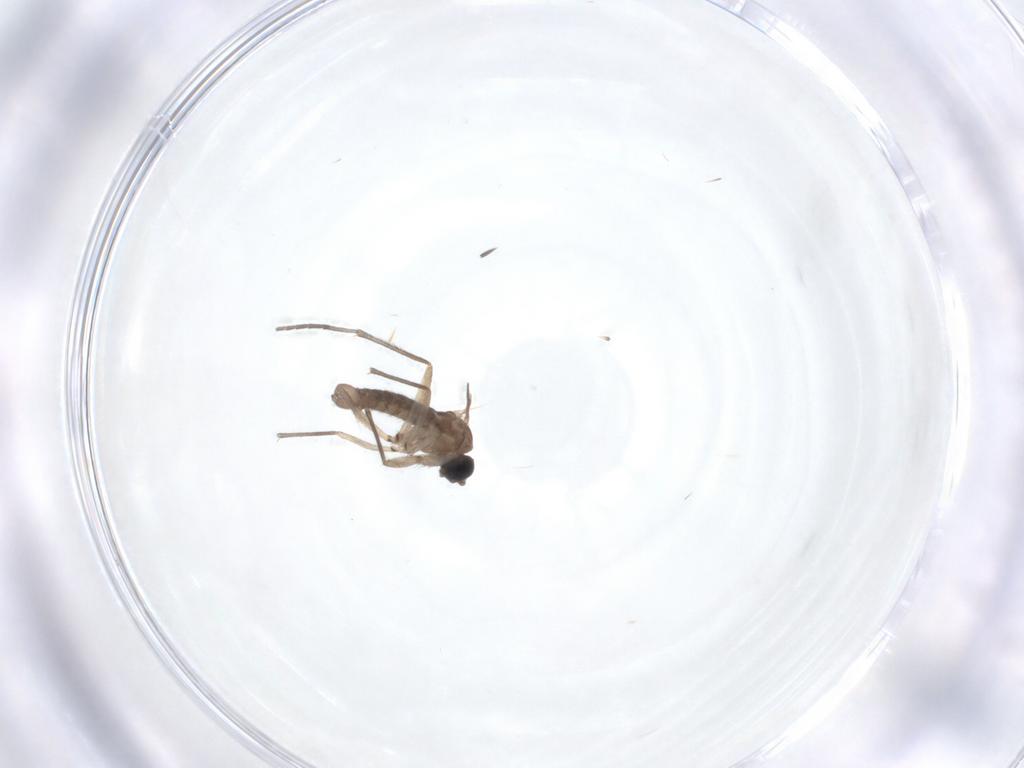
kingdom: Animalia
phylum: Arthropoda
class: Insecta
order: Diptera
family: Sciaridae
